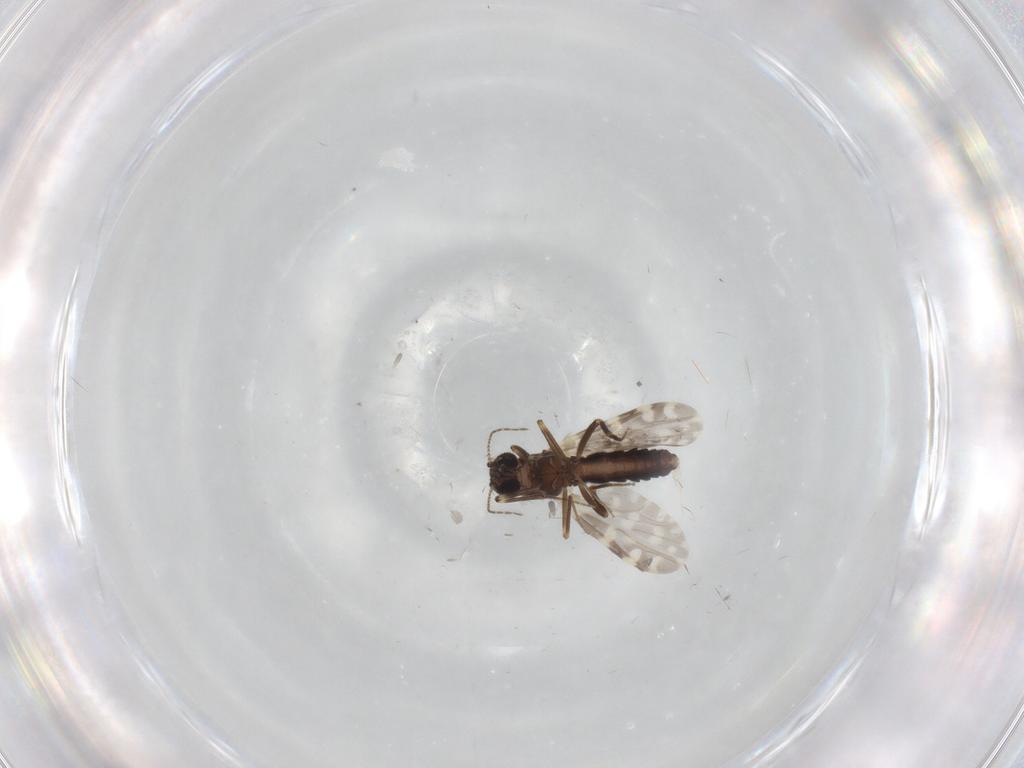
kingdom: Animalia
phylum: Arthropoda
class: Insecta
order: Diptera
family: Ceratopogonidae
